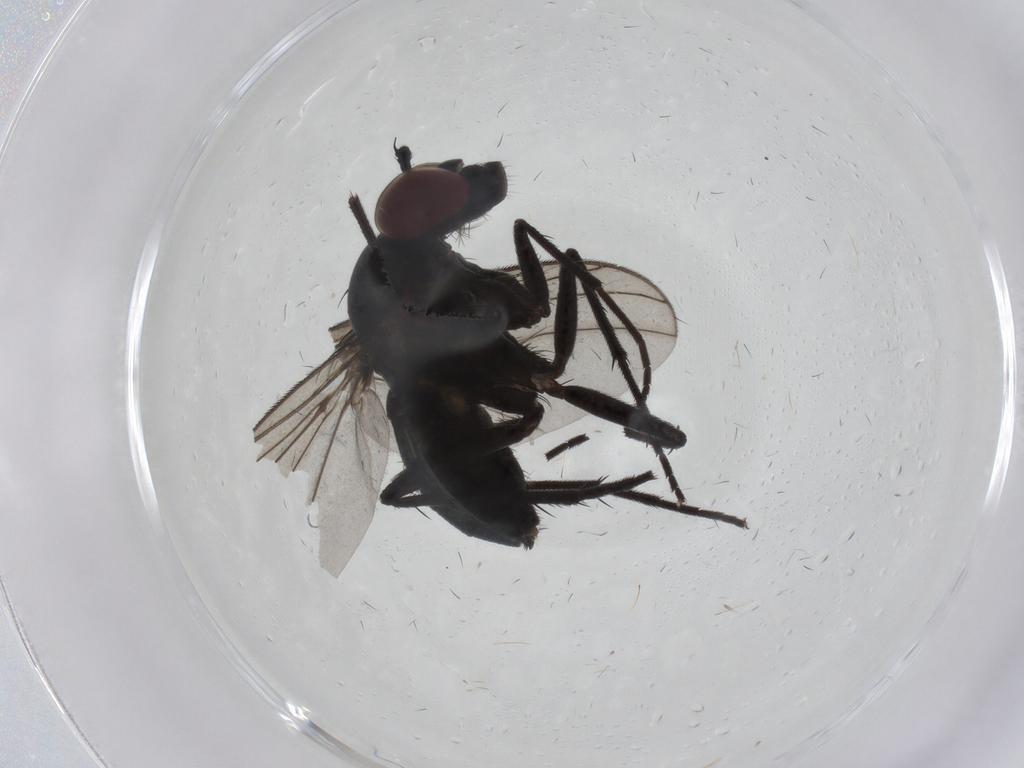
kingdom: Animalia
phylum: Arthropoda
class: Insecta
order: Diptera
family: Dolichopodidae
